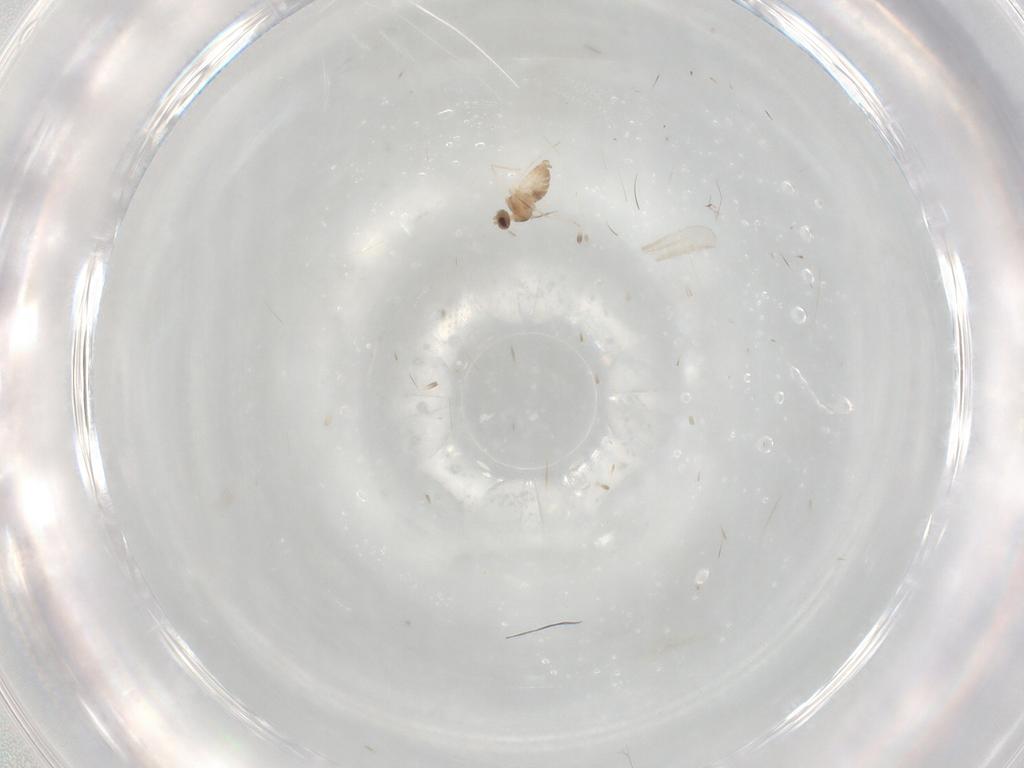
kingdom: Animalia
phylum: Arthropoda
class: Insecta
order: Diptera
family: Cecidomyiidae
